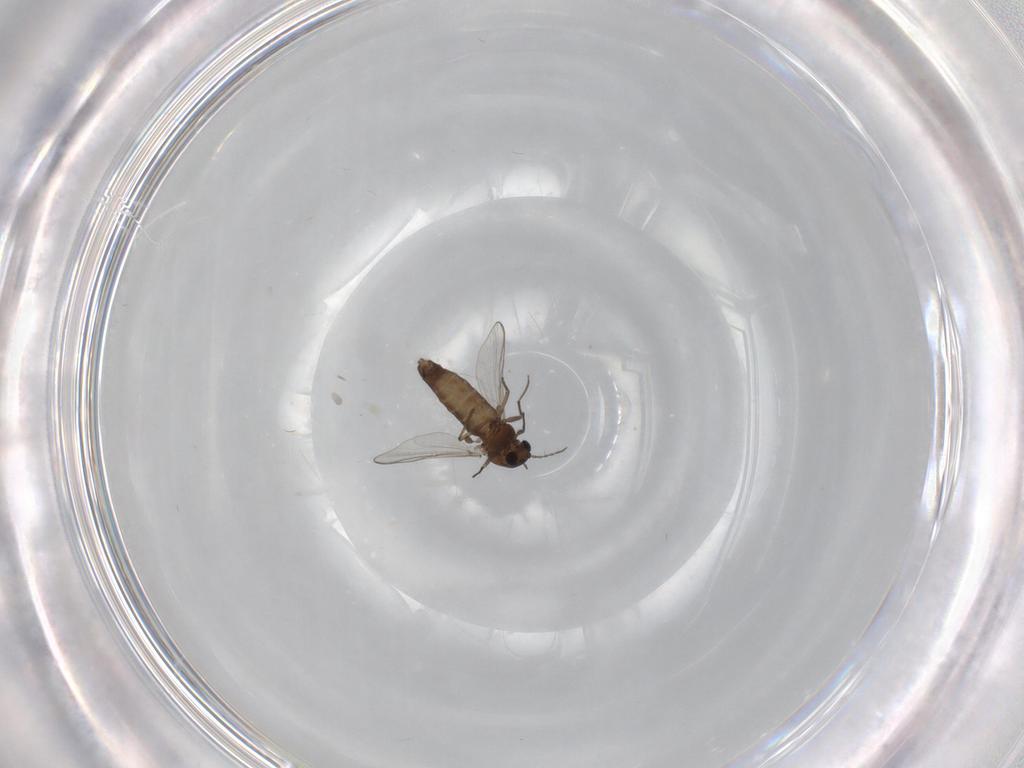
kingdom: Animalia
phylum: Arthropoda
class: Insecta
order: Diptera
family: Chironomidae
